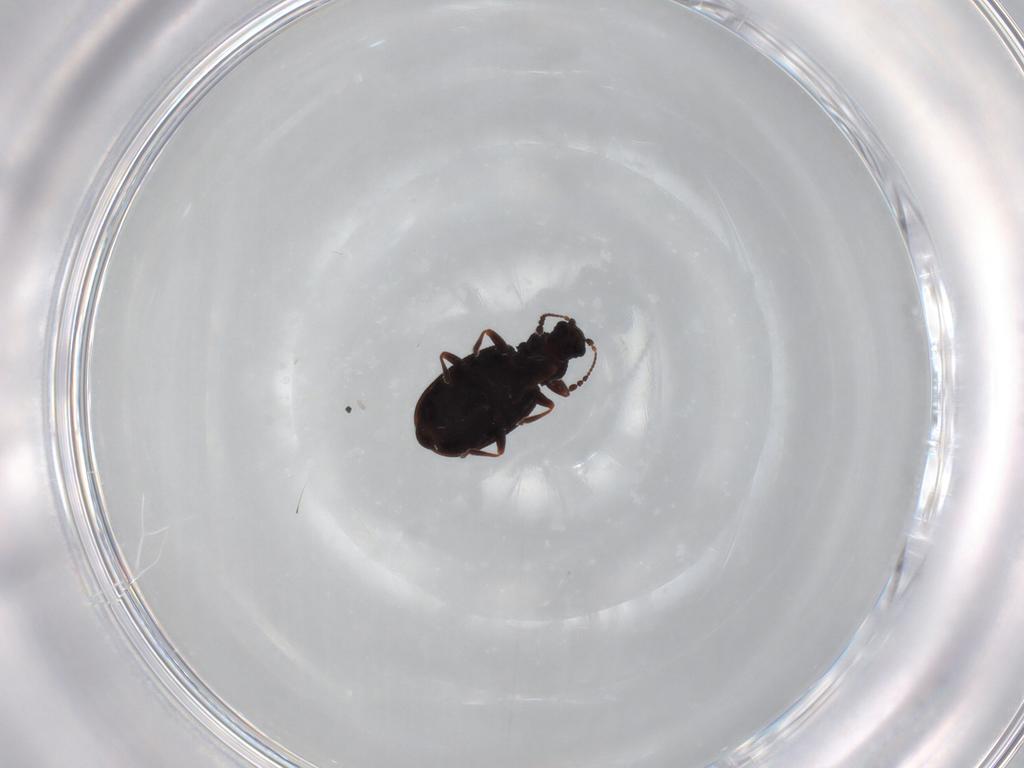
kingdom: Animalia
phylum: Arthropoda
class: Insecta
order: Coleoptera
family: Latridiidae
